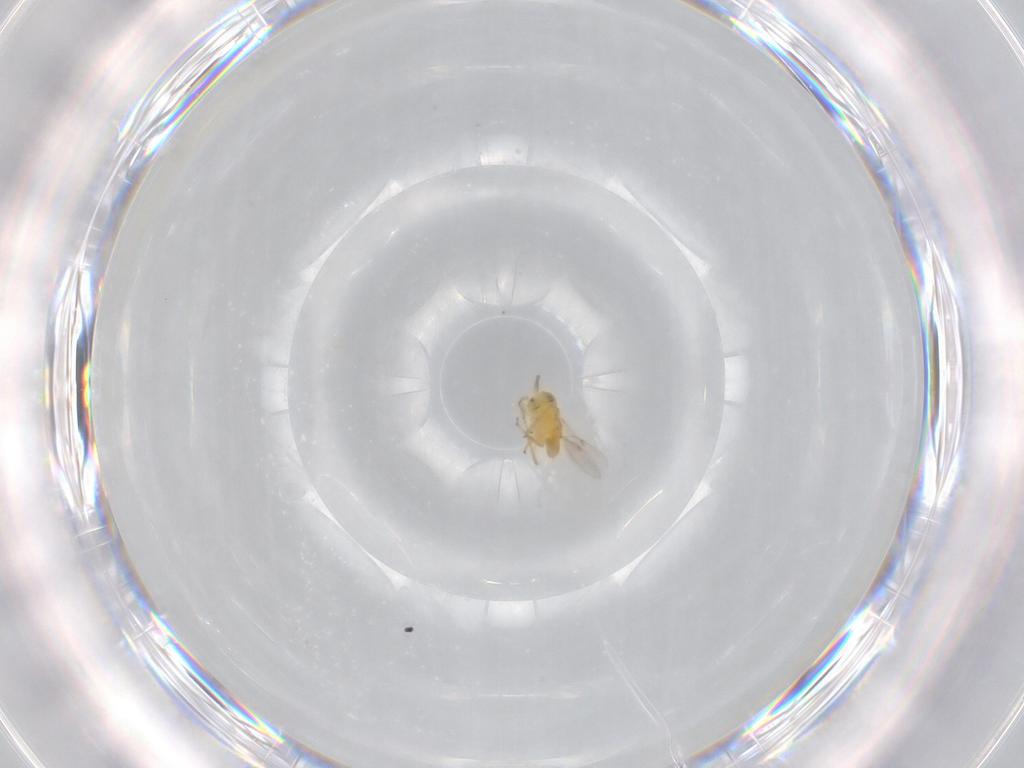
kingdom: Animalia
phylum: Arthropoda
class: Insecta
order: Hymenoptera
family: Encyrtidae
